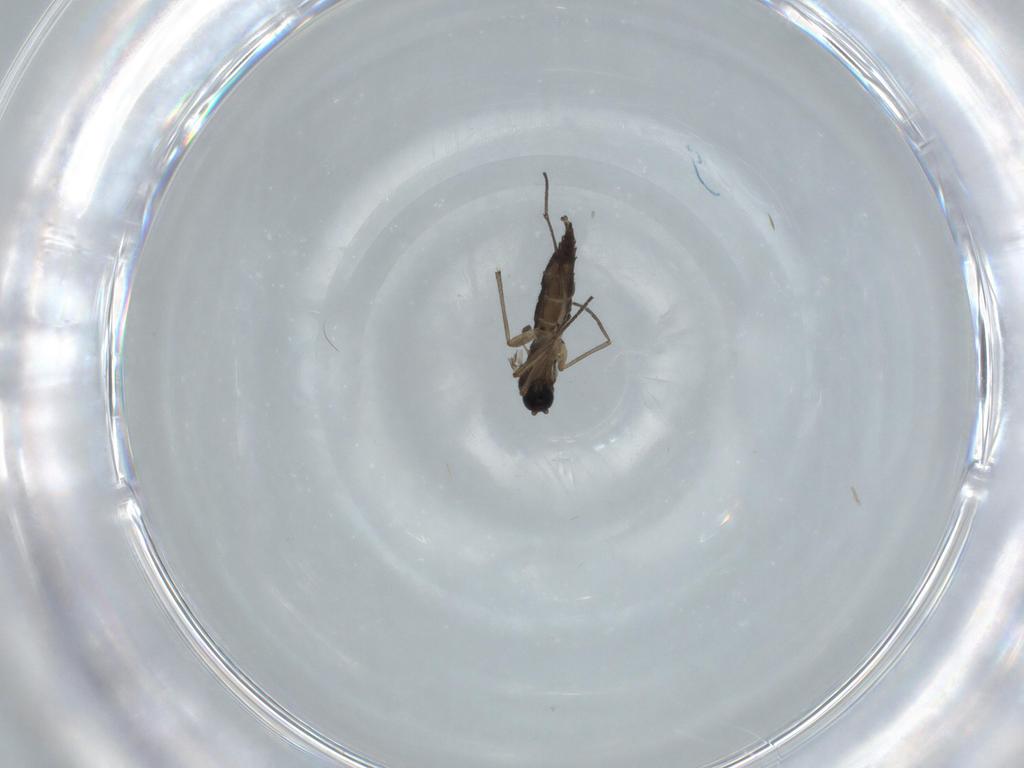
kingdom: Animalia
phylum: Arthropoda
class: Insecta
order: Diptera
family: Sciaridae
